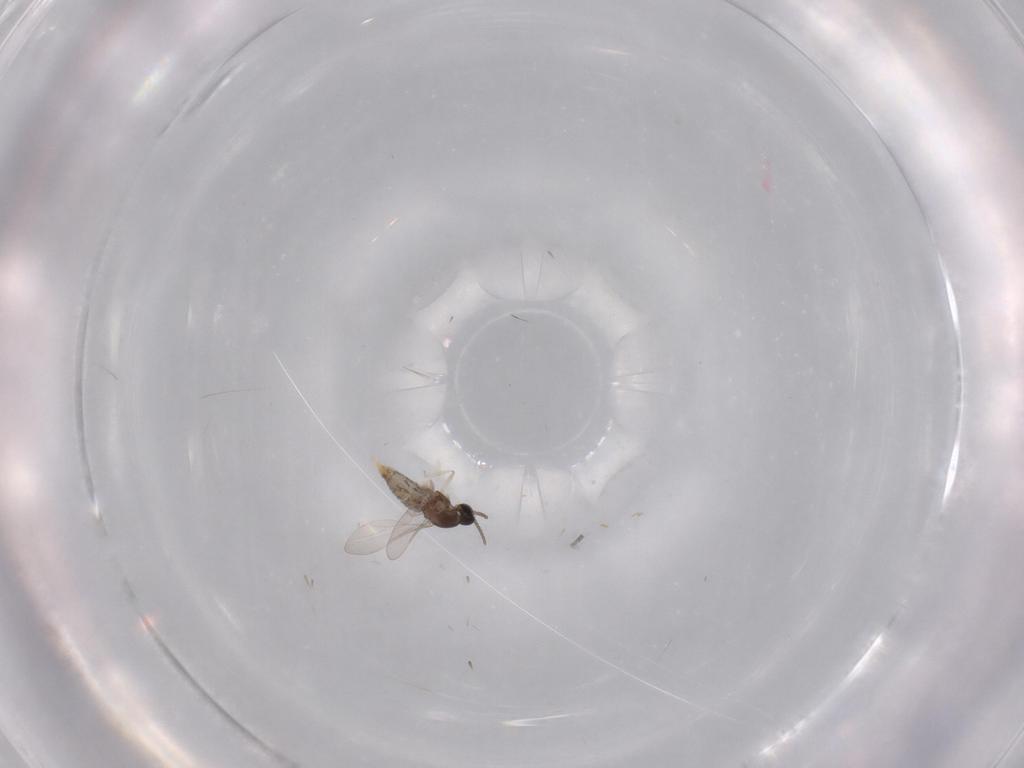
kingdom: Animalia
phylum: Arthropoda
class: Insecta
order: Diptera
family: Cecidomyiidae
